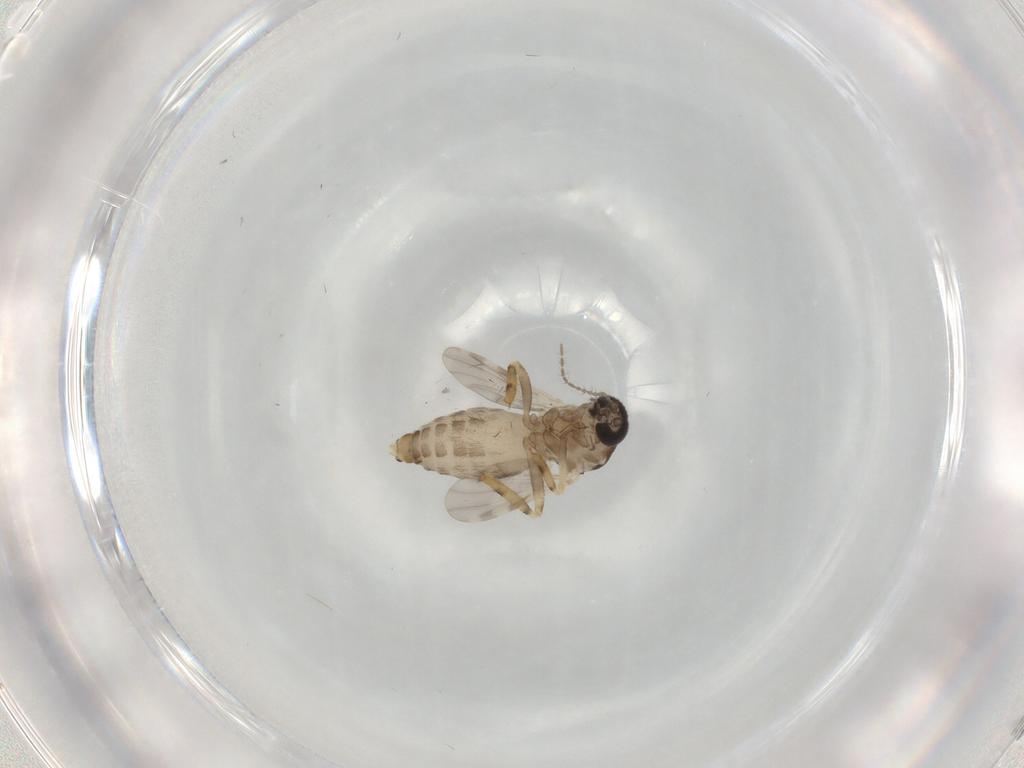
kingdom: Animalia
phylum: Arthropoda
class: Insecta
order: Diptera
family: Ceratopogonidae
